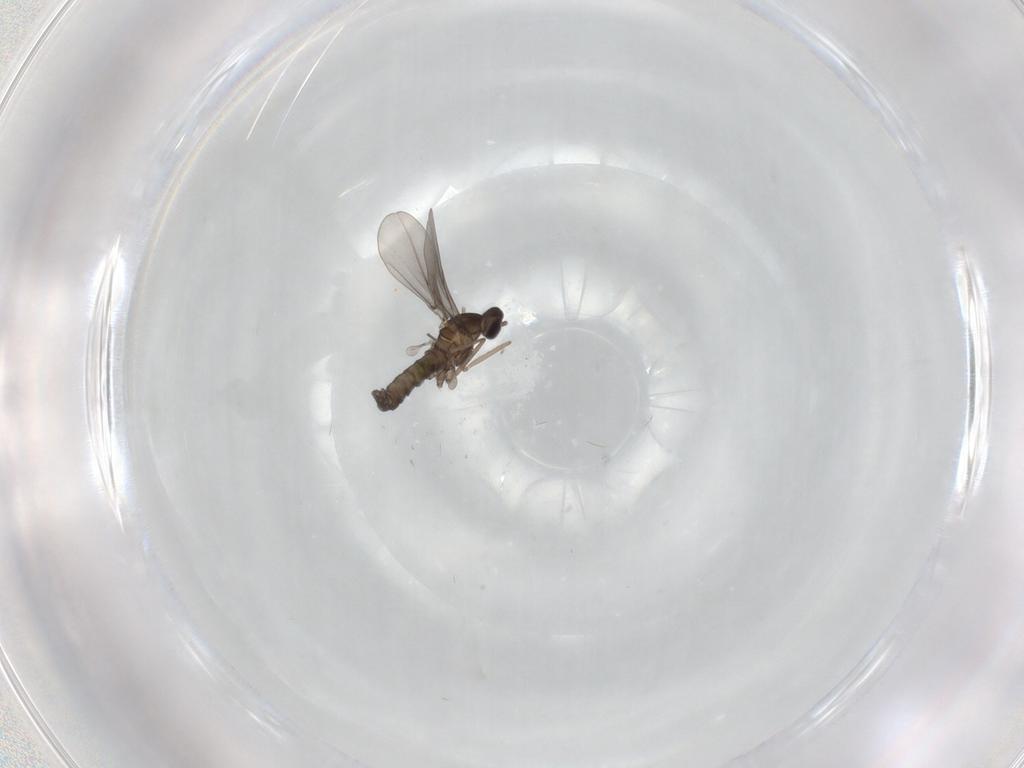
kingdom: Animalia
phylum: Arthropoda
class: Insecta
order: Diptera
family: Cecidomyiidae
